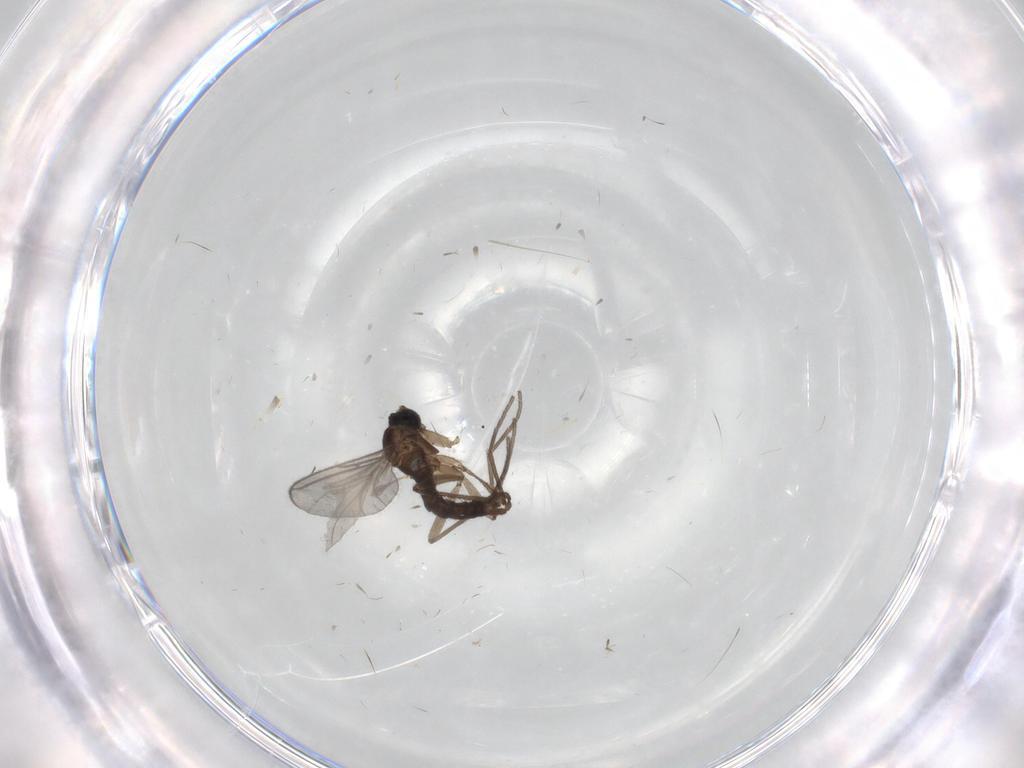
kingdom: Animalia
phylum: Arthropoda
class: Insecta
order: Diptera
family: Sciaridae
